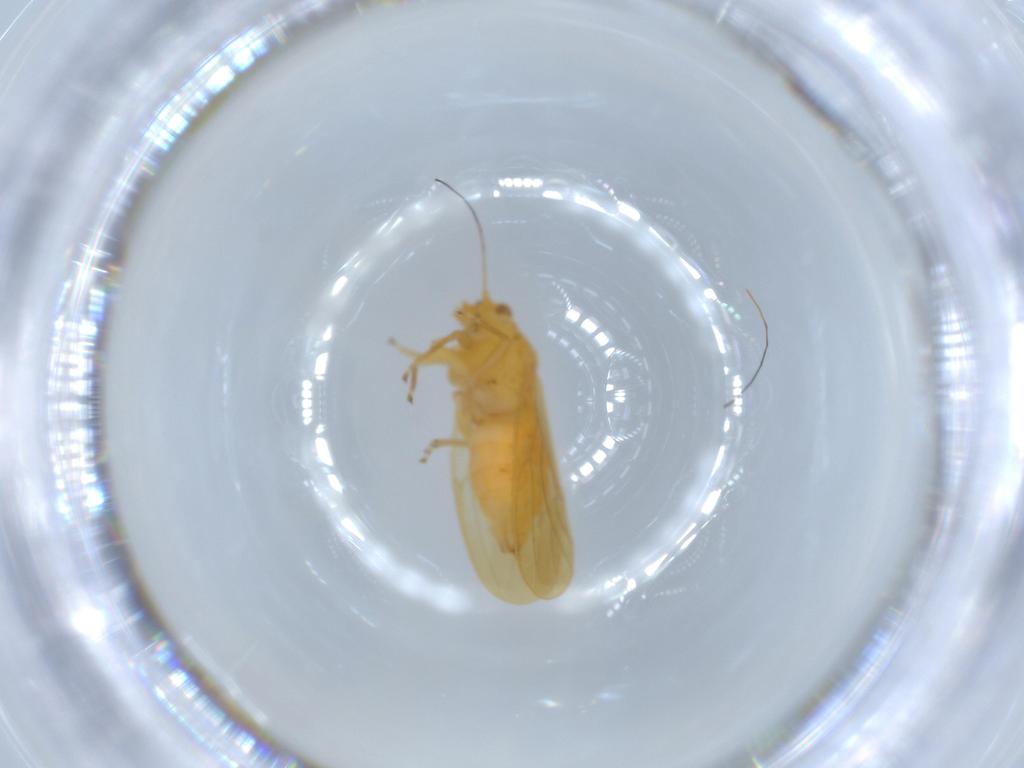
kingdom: Animalia
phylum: Arthropoda
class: Insecta
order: Hemiptera
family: Psyllidae
